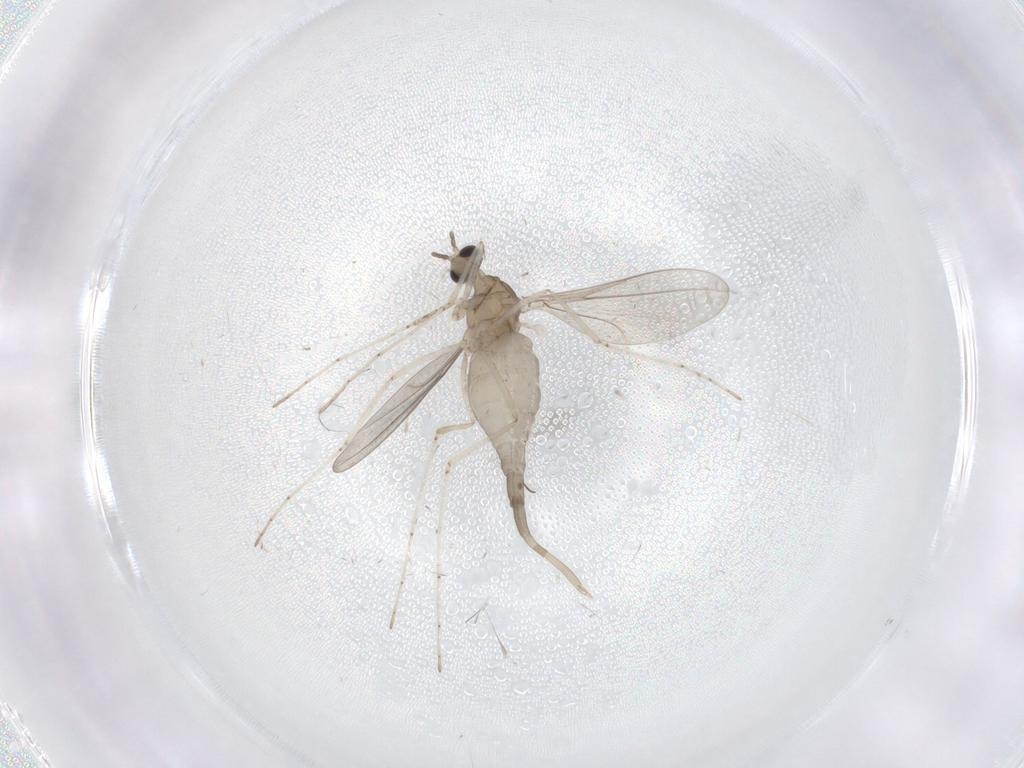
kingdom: Animalia
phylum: Arthropoda
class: Insecta
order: Diptera
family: Cecidomyiidae
